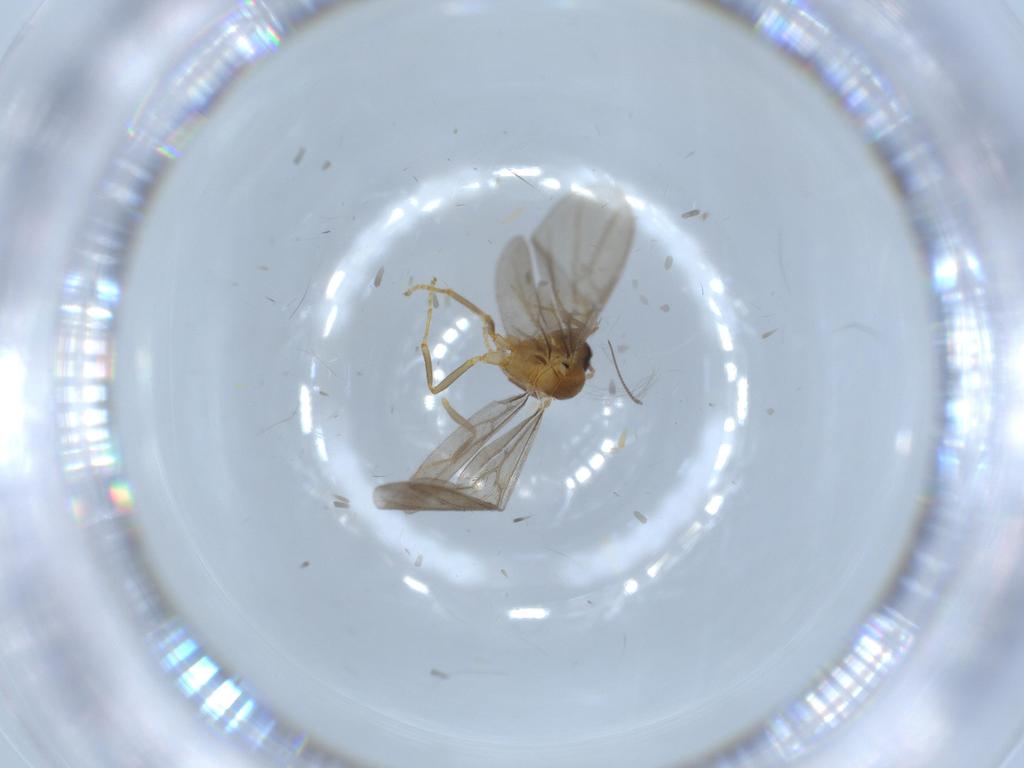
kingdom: Animalia
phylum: Arthropoda
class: Insecta
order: Hymenoptera
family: Formicidae
